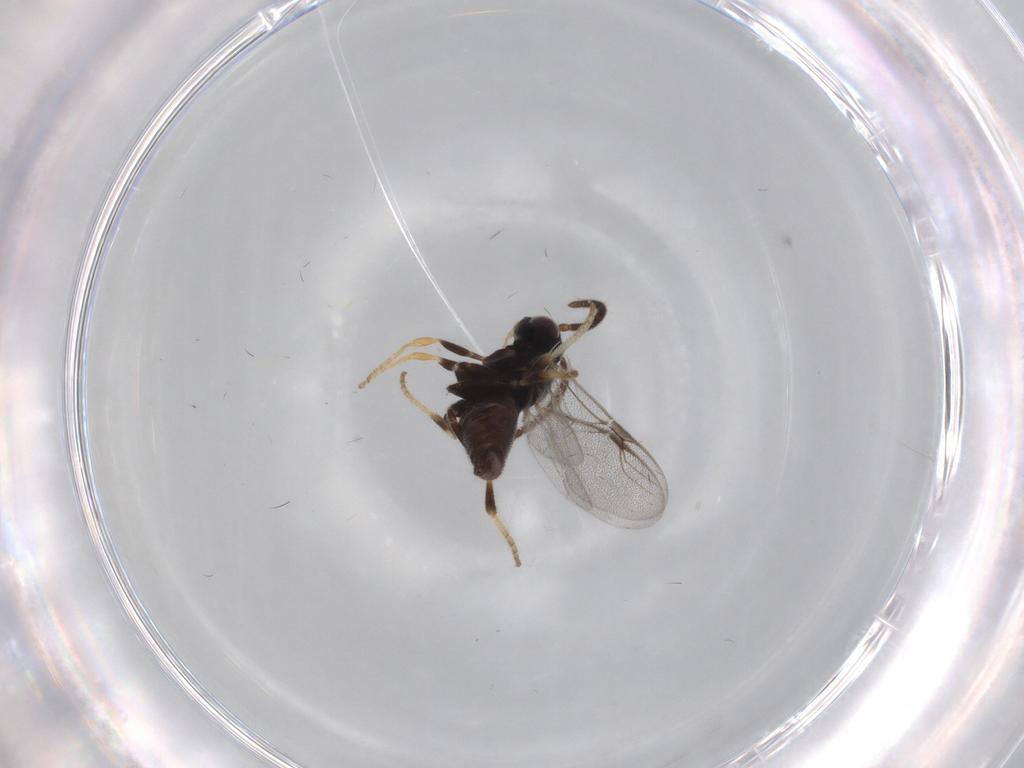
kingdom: Animalia
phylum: Arthropoda
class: Insecta
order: Hymenoptera
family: Dryinidae
